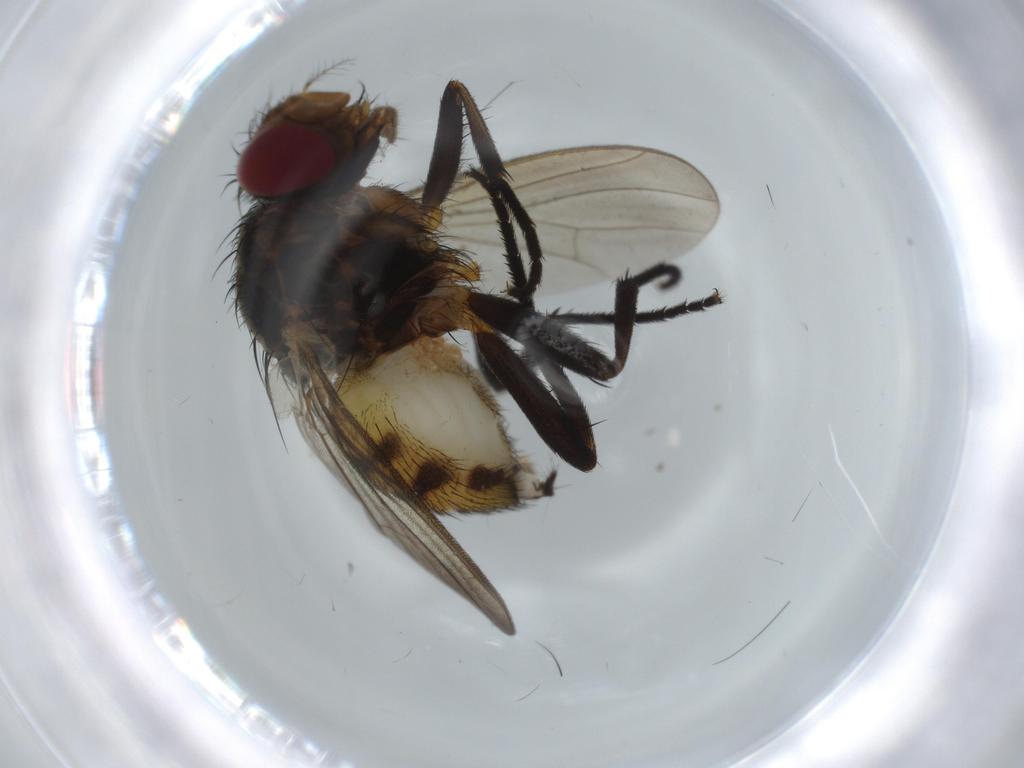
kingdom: Animalia
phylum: Arthropoda
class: Insecta
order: Diptera
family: Psychodidae
